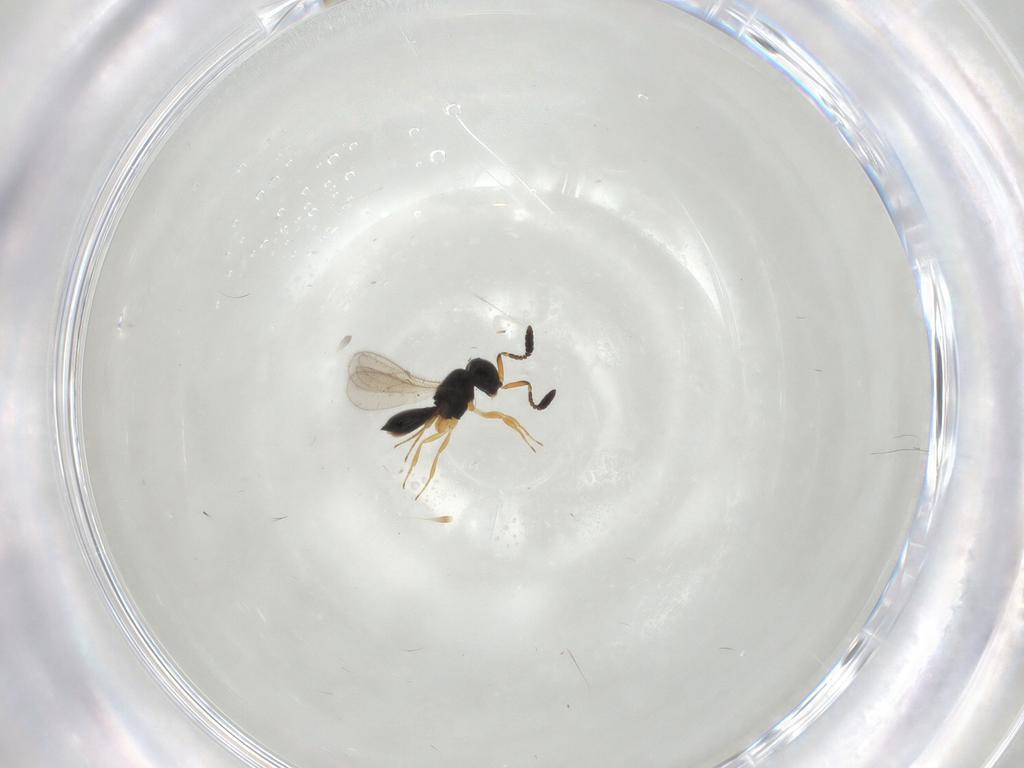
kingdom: Animalia
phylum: Arthropoda
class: Insecta
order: Hymenoptera
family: Scelionidae
